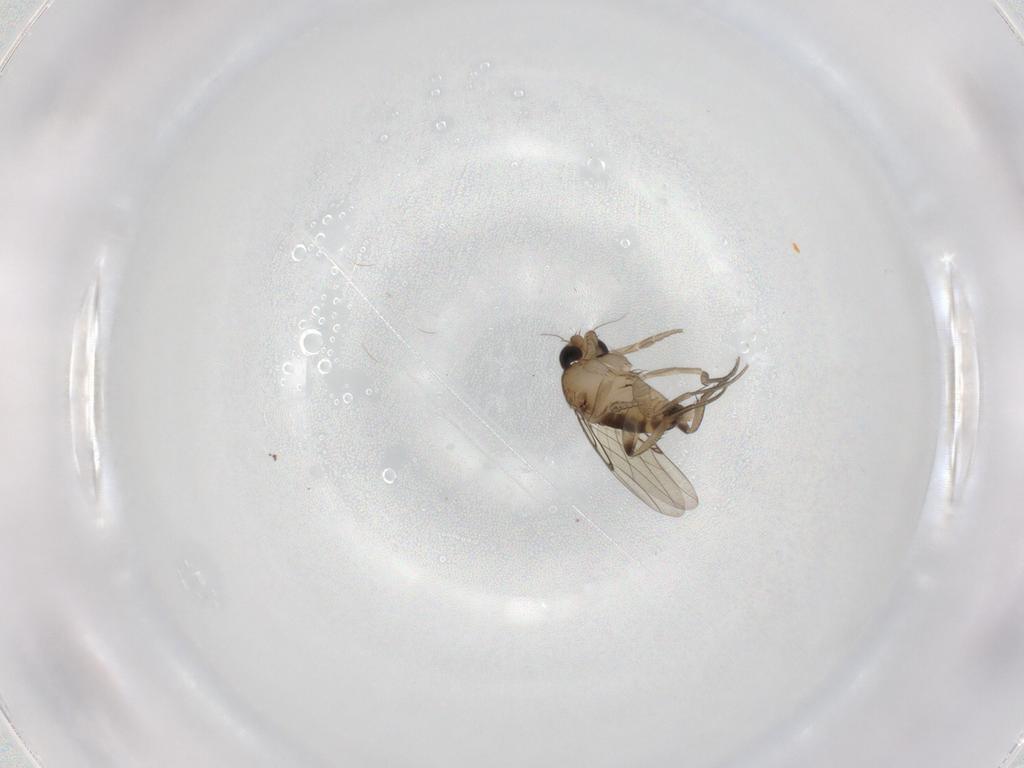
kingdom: Animalia
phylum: Arthropoda
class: Insecta
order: Diptera
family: Phoridae
